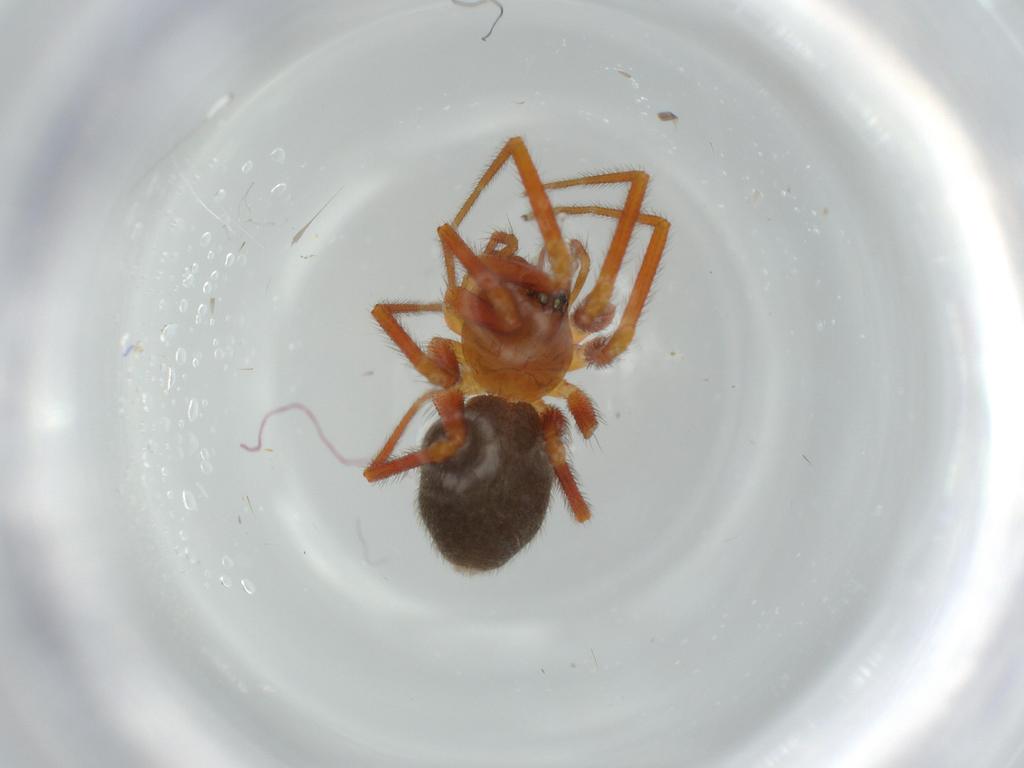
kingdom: Animalia
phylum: Arthropoda
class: Arachnida
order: Araneae
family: Linyphiidae
